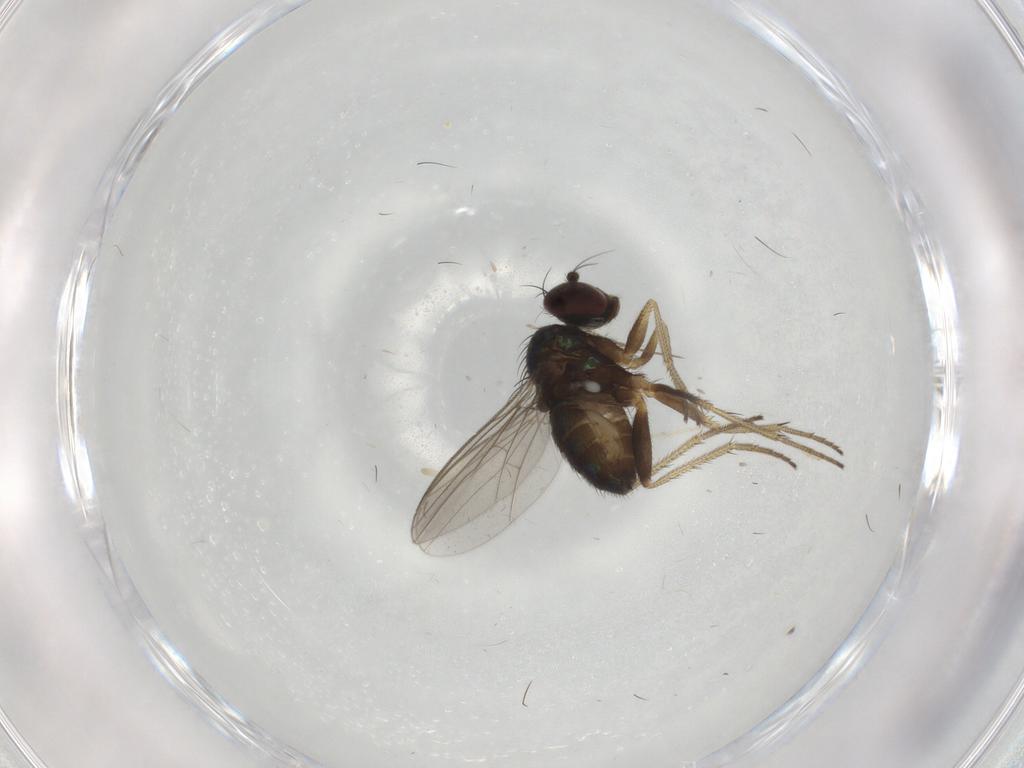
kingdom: Animalia
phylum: Arthropoda
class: Insecta
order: Diptera
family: Dolichopodidae
